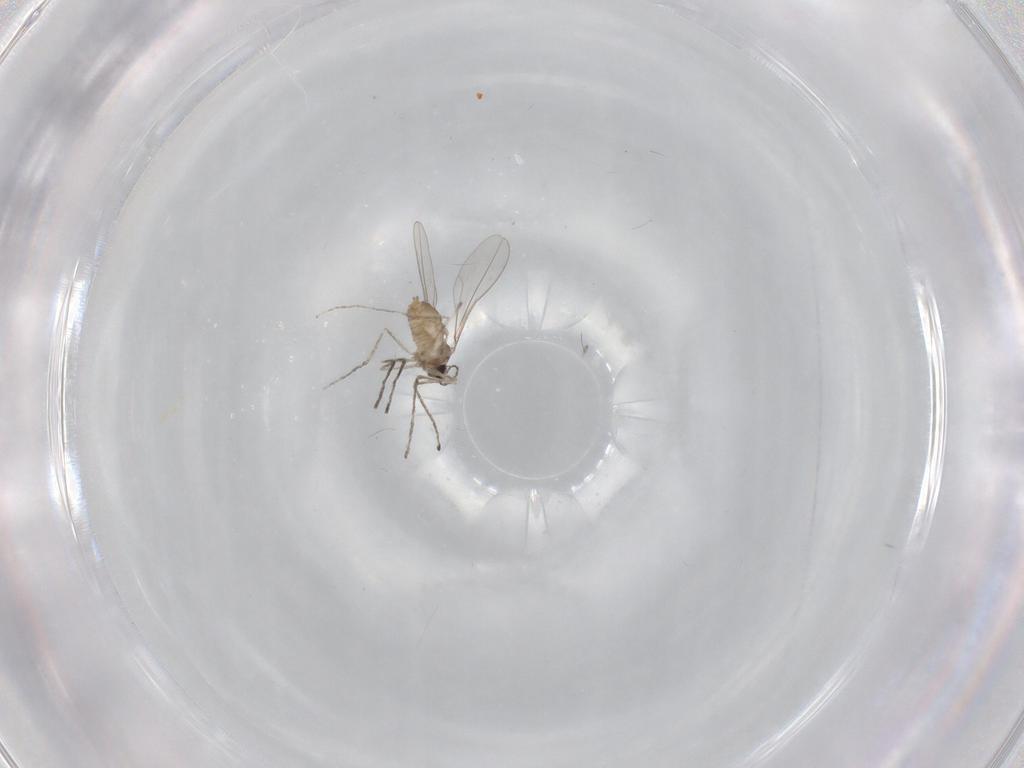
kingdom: Animalia
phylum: Arthropoda
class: Insecta
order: Diptera
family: Cecidomyiidae
